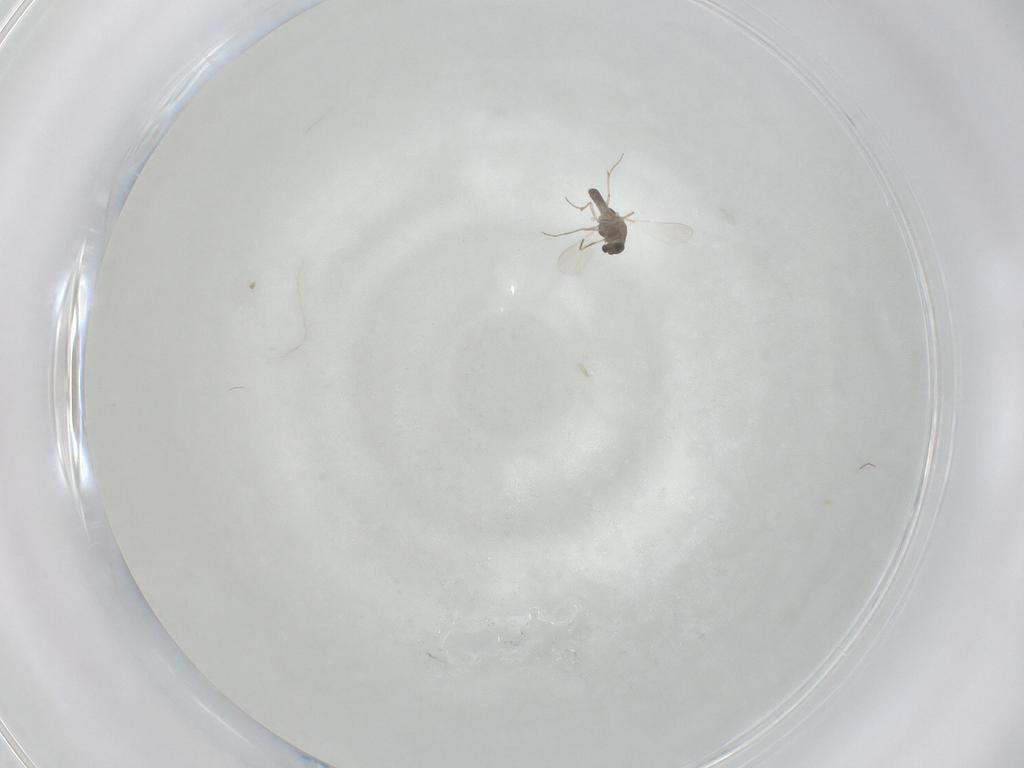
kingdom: Animalia
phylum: Arthropoda
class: Insecta
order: Diptera
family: Chironomidae
